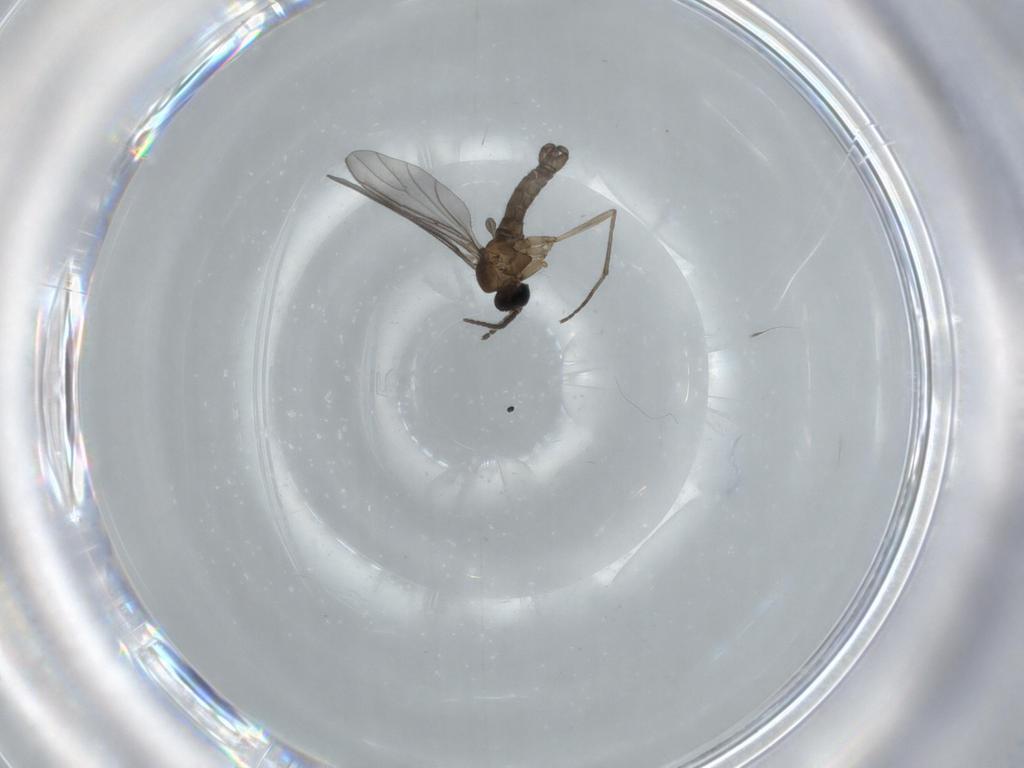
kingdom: Animalia
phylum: Arthropoda
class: Insecta
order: Diptera
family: Sciaridae
